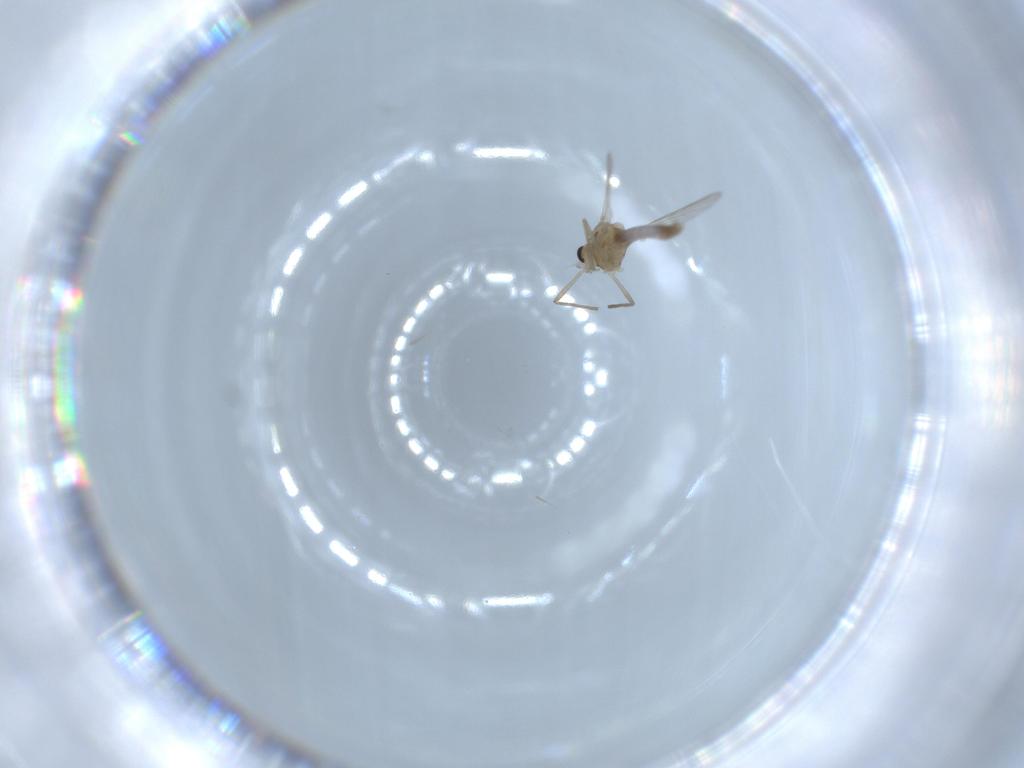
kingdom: Animalia
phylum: Arthropoda
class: Insecta
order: Diptera
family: Chironomidae
